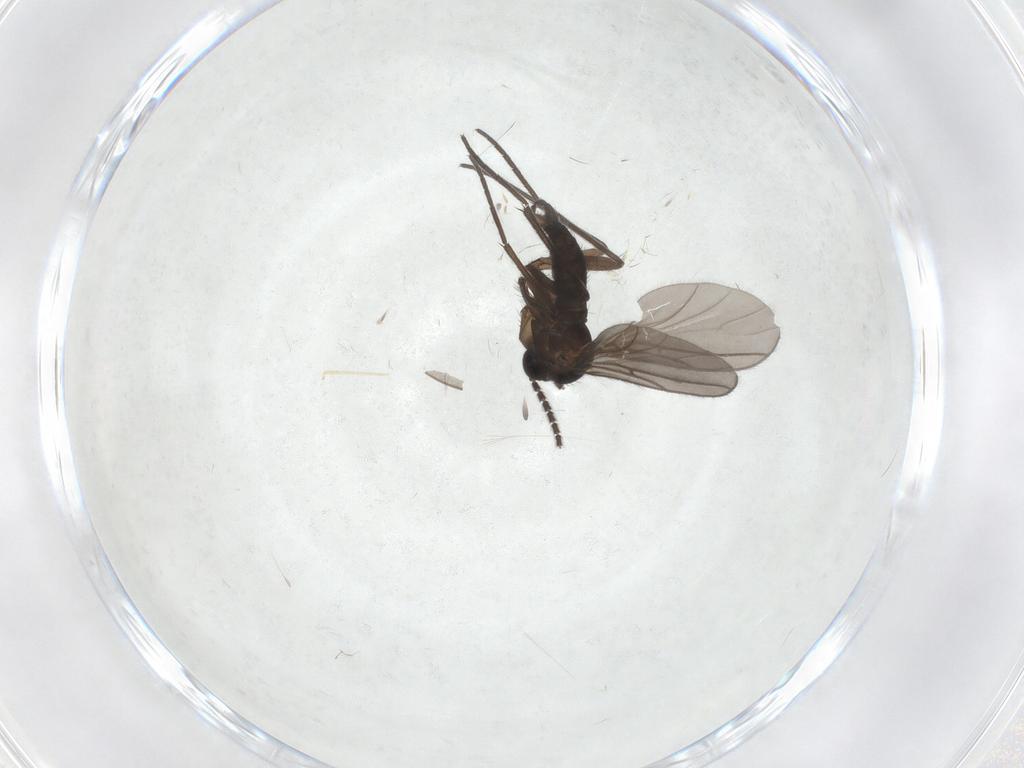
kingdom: Animalia
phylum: Arthropoda
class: Insecta
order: Diptera
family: Sciaridae
